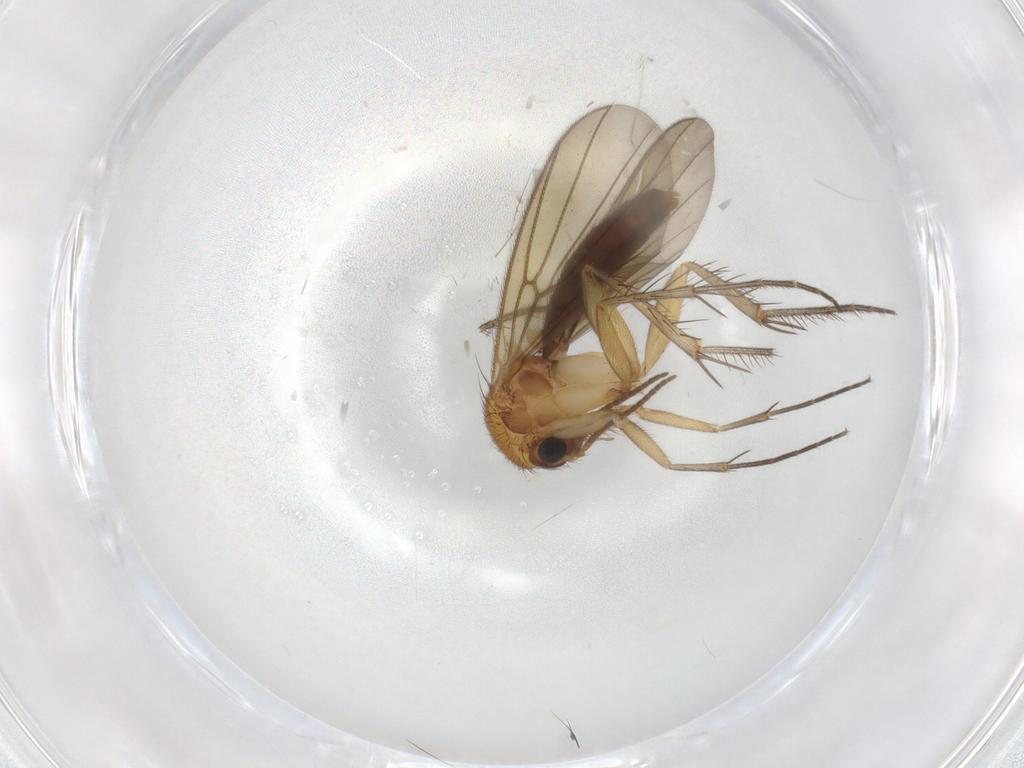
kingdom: Animalia
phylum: Arthropoda
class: Insecta
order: Diptera
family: Mycetophilidae
